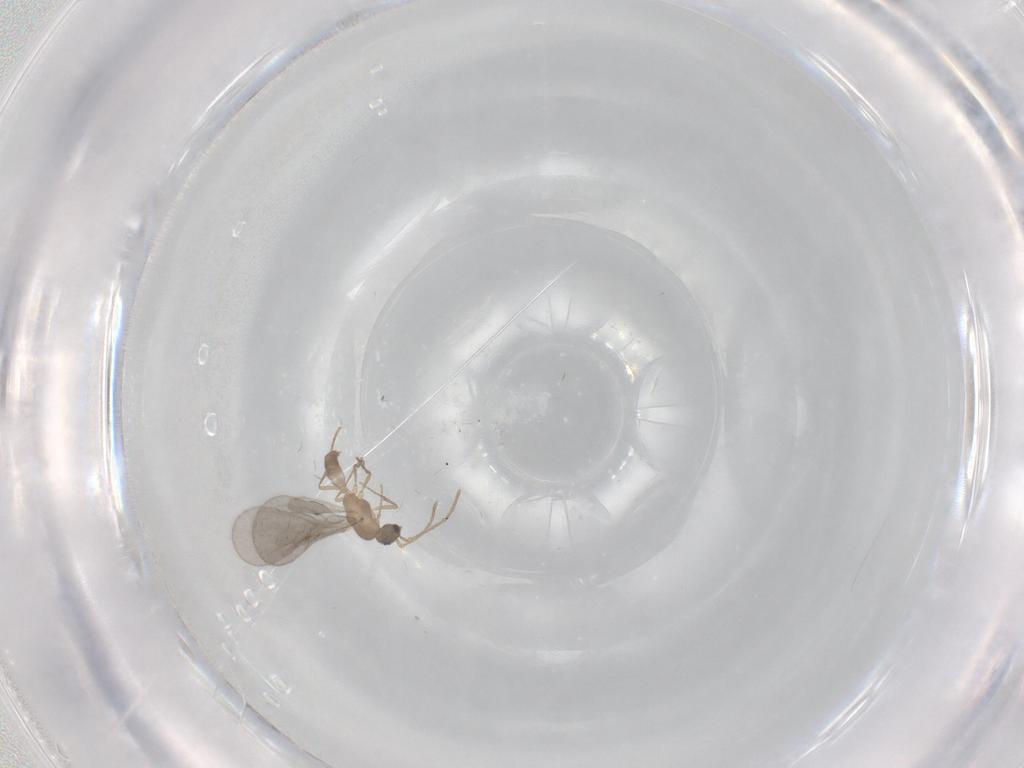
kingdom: Animalia
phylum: Arthropoda
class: Insecta
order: Hymenoptera
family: Formicidae
